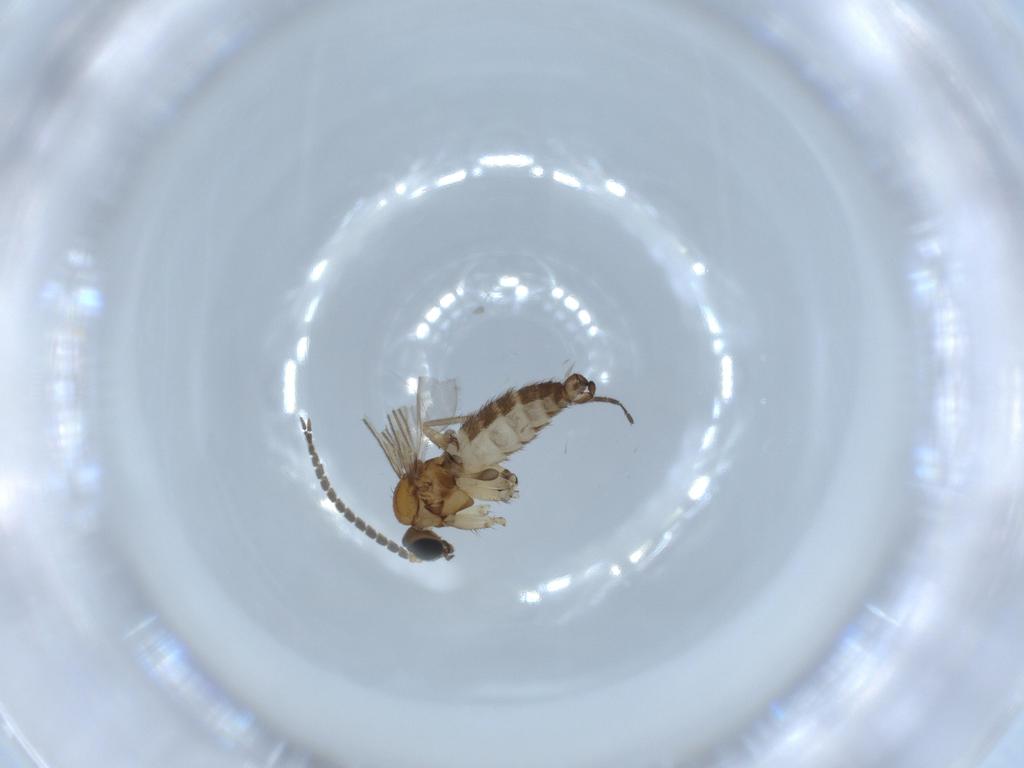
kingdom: Animalia
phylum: Arthropoda
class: Insecta
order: Diptera
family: Sciaridae
